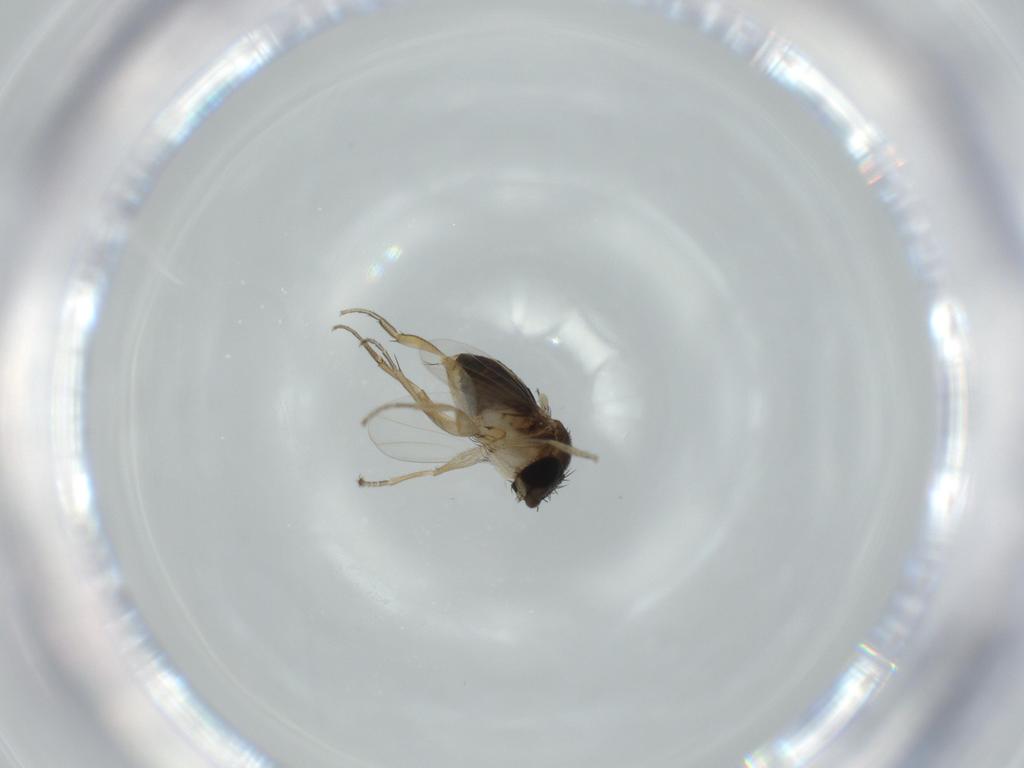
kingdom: Animalia
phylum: Arthropoda
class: Insecta
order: Diptera
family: Phoridae
